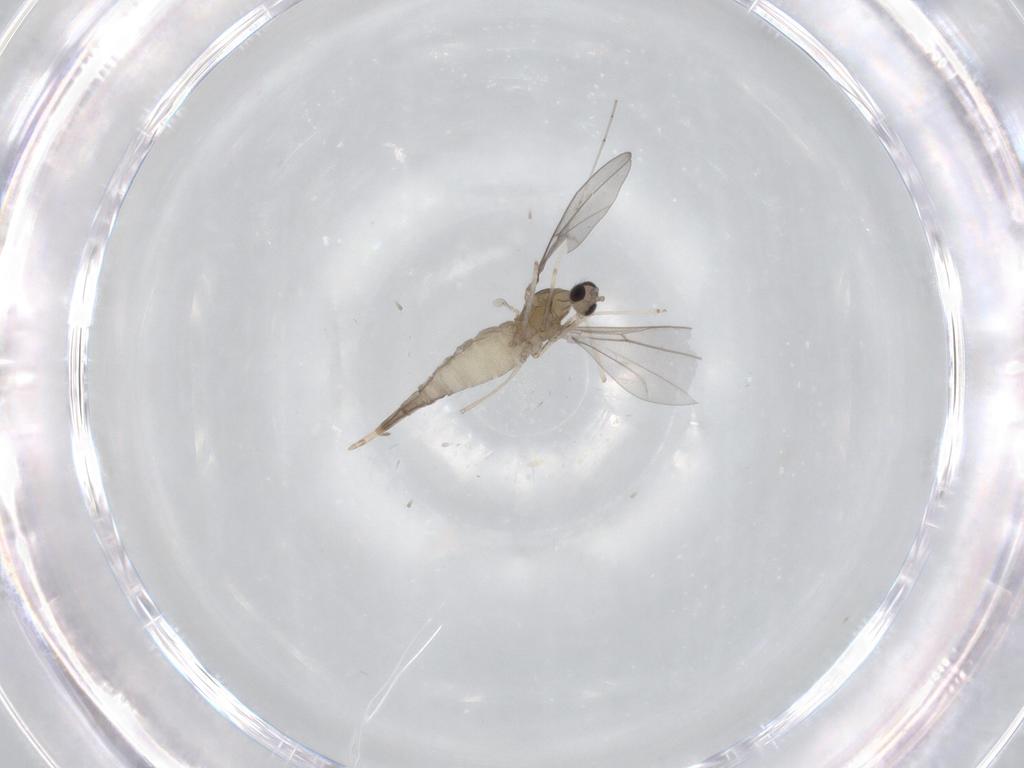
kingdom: Animalia
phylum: Arthropoda
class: Insecta
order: Diptera
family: Cecidomyiidae
